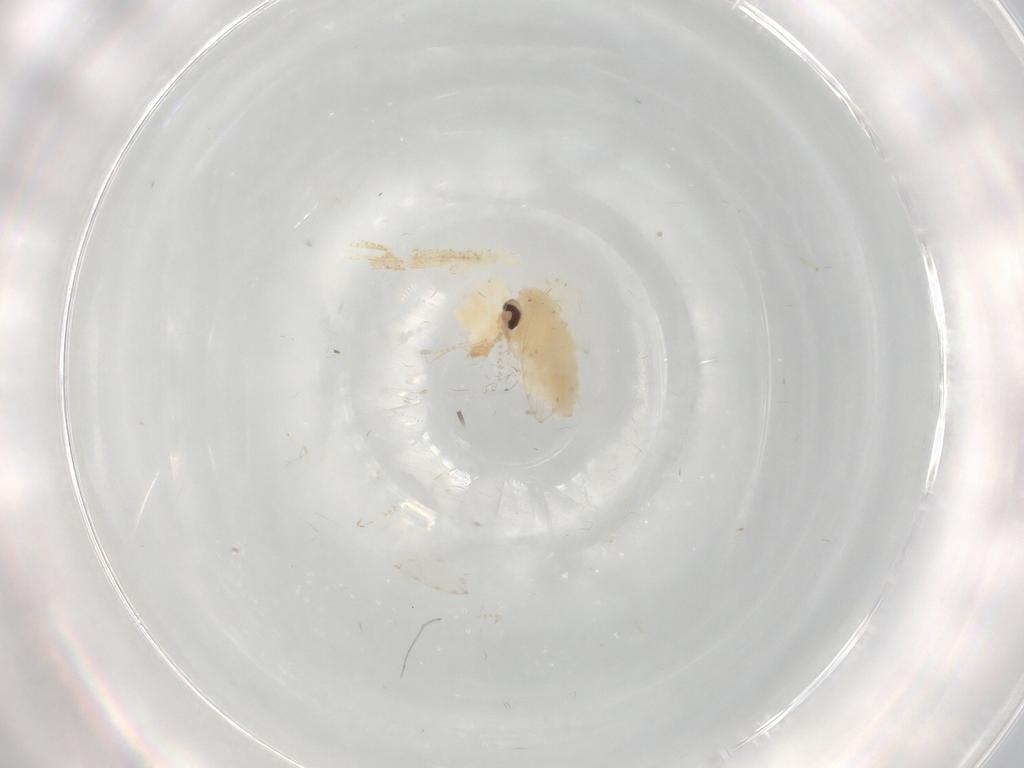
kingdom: Animalia
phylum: Arthropoda
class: Insecta
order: Diptera
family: Psychodidae
